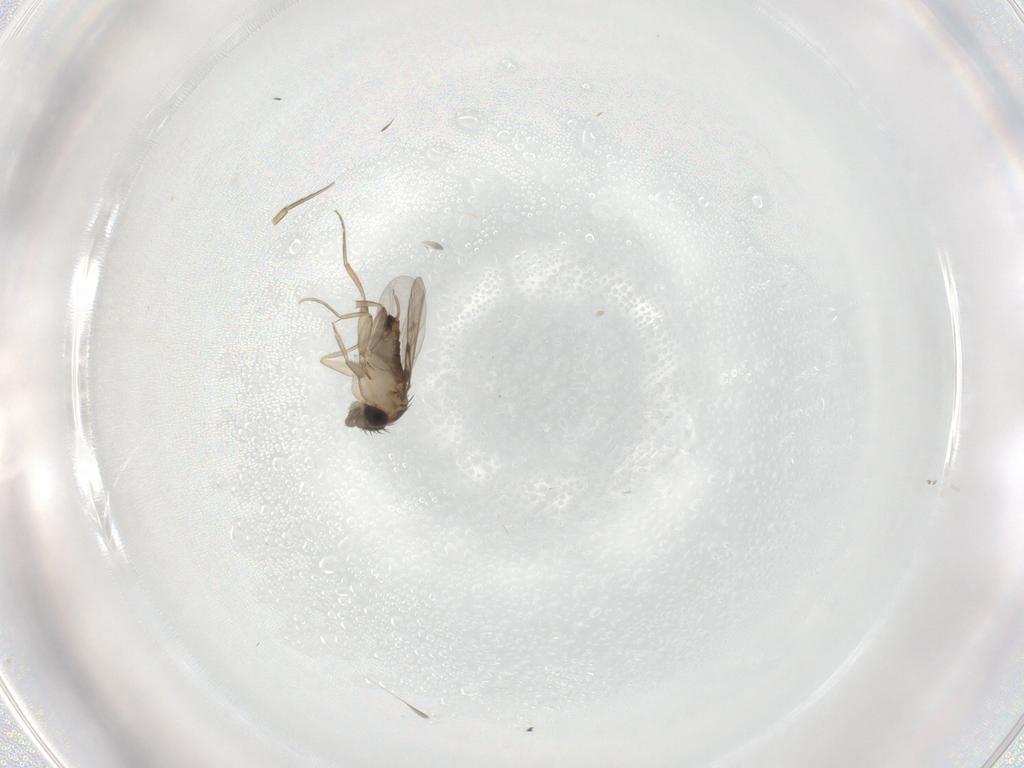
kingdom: Animalia
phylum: Arthropoda
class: Insecta
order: Diptera
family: Phoridae
